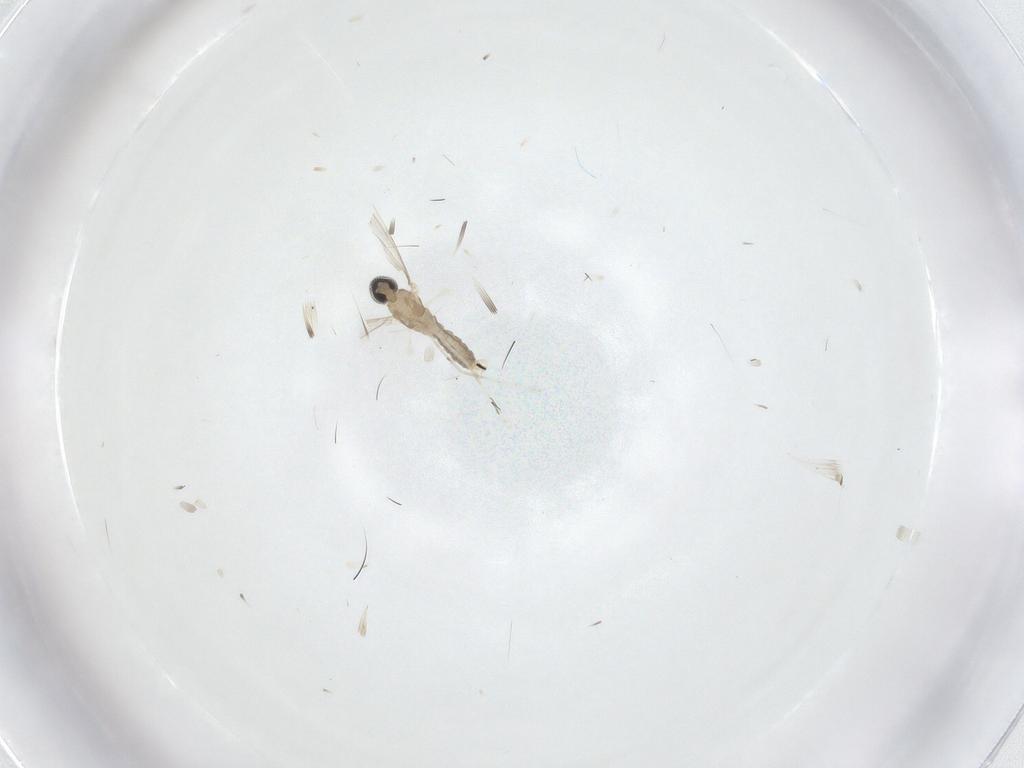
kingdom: Animalia
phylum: Arthropoda
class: Insecta
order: Diptera
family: Cecidomyiidae
